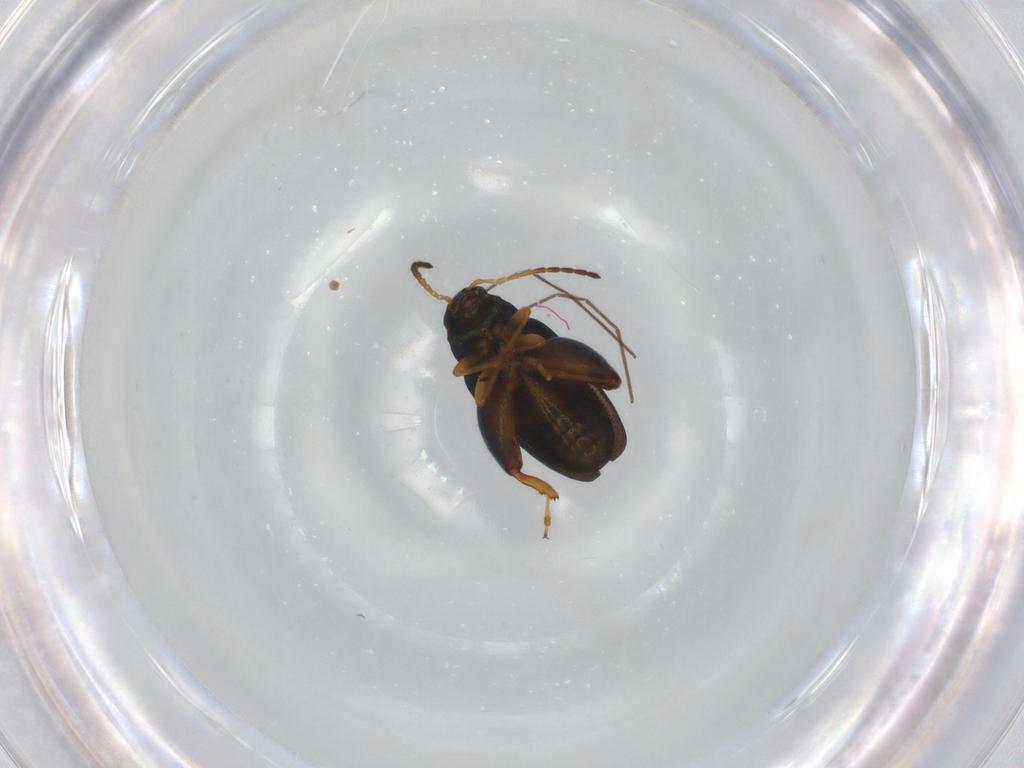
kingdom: Animalia
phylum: Arthropoda
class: Insecta
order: Coleoptera
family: Chrysomelidae
